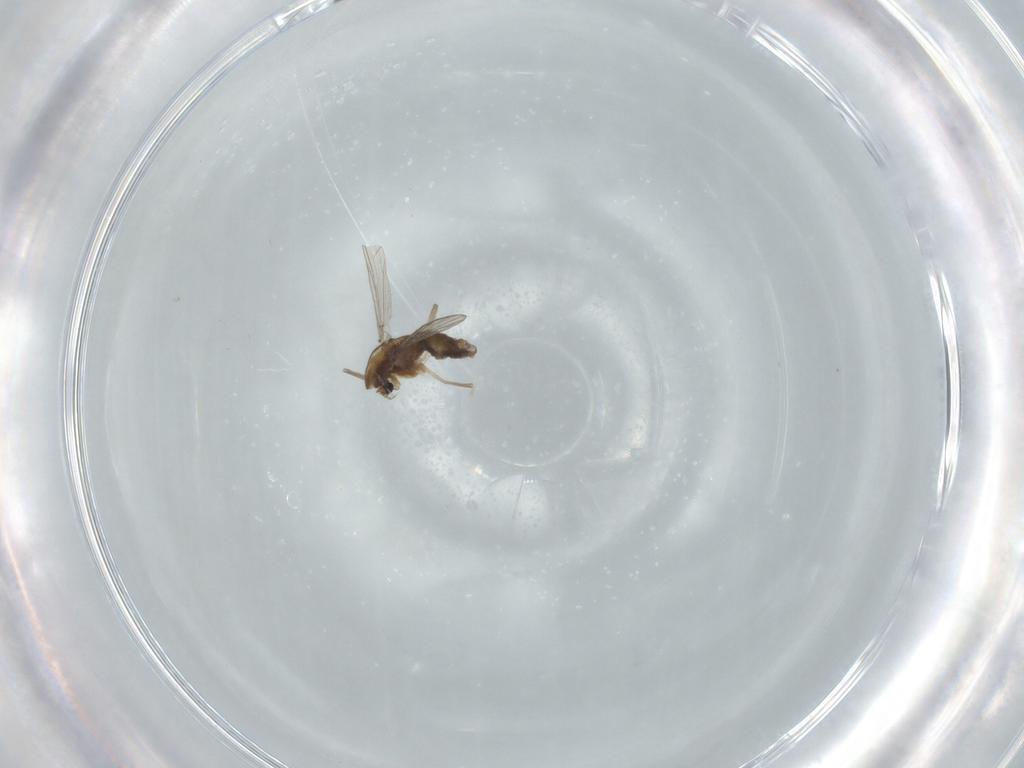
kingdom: Animalia
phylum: Arthropoda
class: Insecta
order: Diptera
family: Chironomidae
